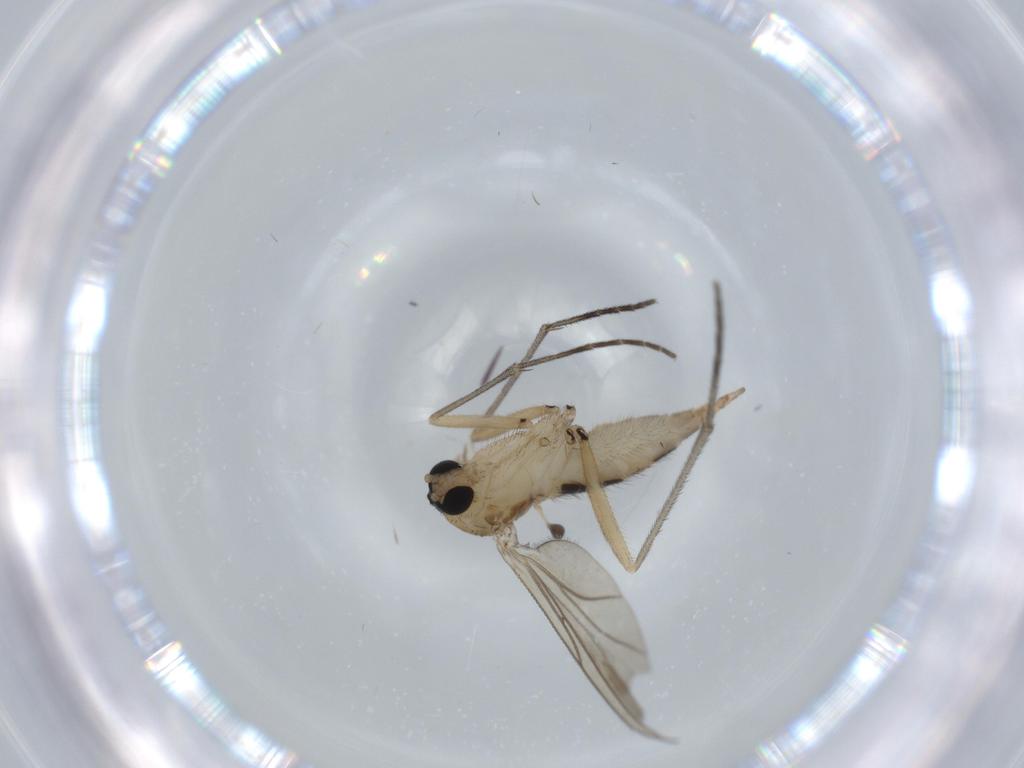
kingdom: Animalia
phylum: Arthropoda
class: Insecta
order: Diptera
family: Sciaridae
